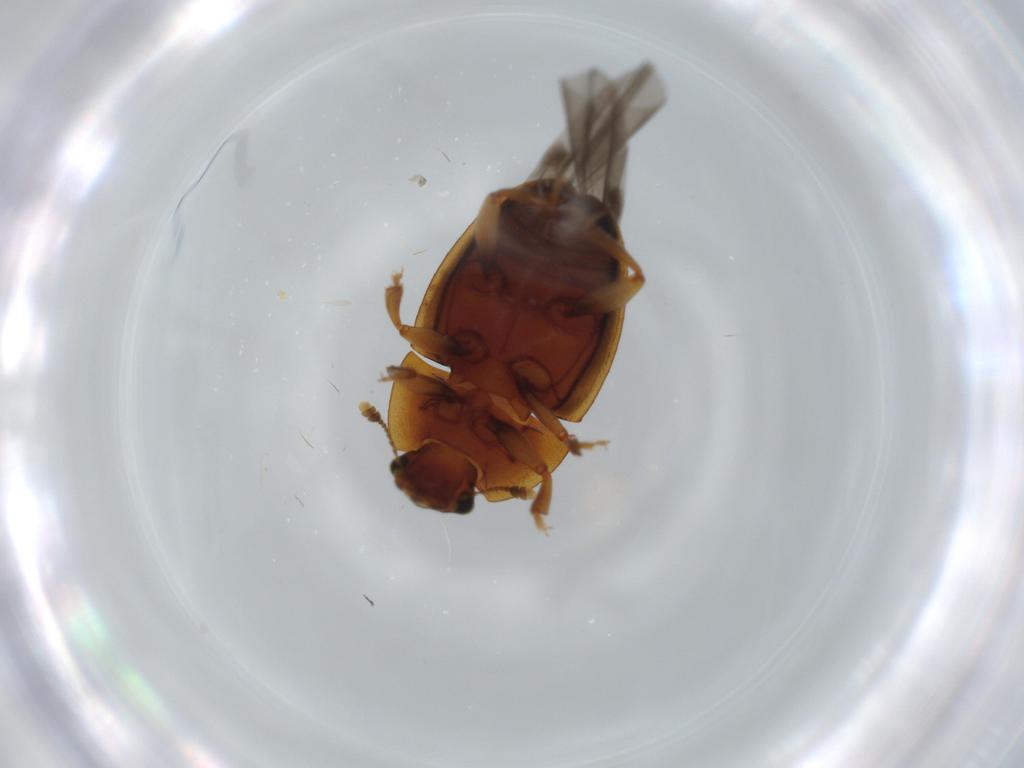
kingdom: Animalia
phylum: Arthropoda
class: Insecta
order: Coleoptera
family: Nitidulidae
